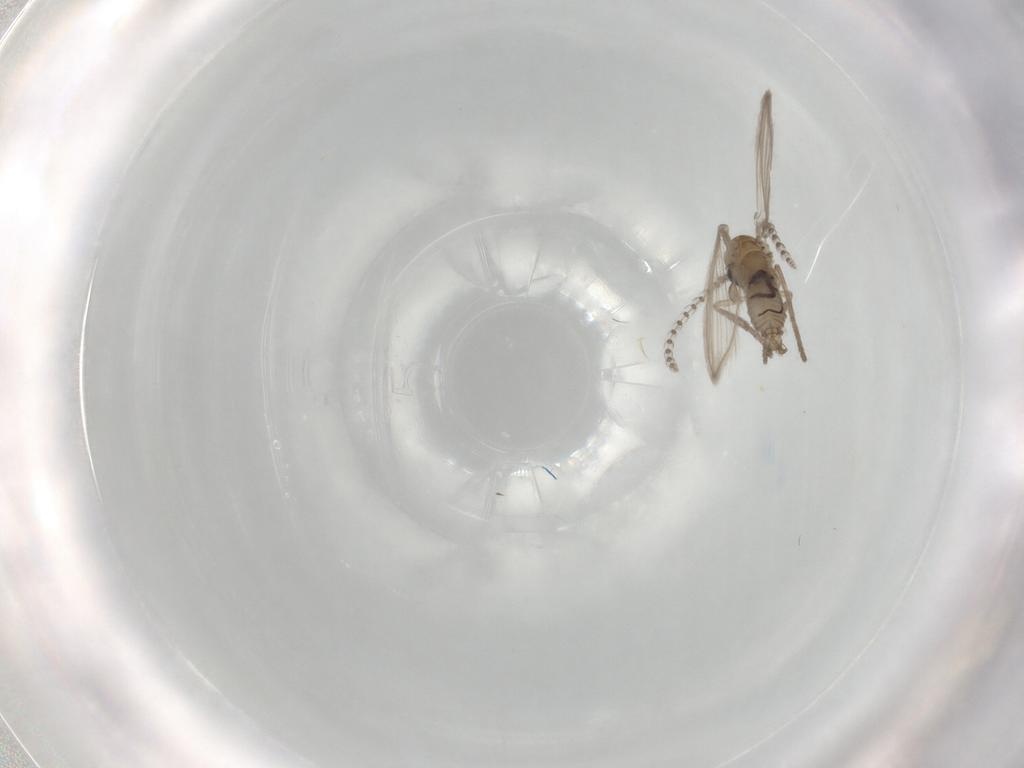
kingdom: Animalia
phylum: Arthropoda
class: Insecta
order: Diptera
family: Psychodidae
